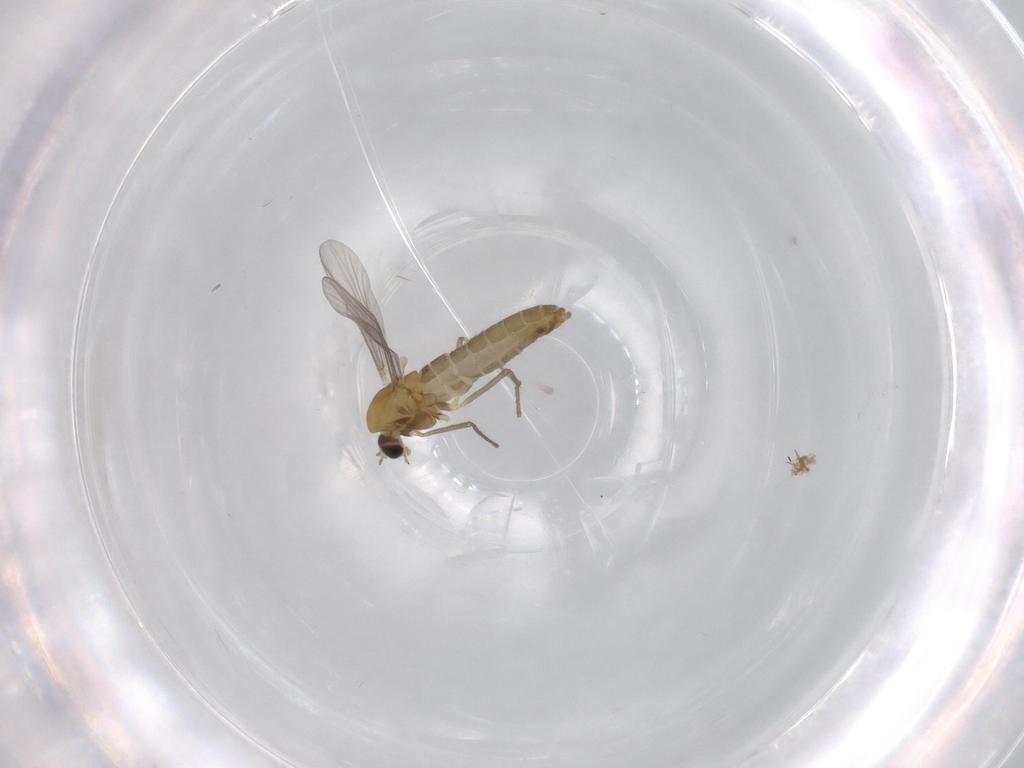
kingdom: Animalia
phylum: Arthropoda
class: Insecta
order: Diptera
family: Chironomidae
